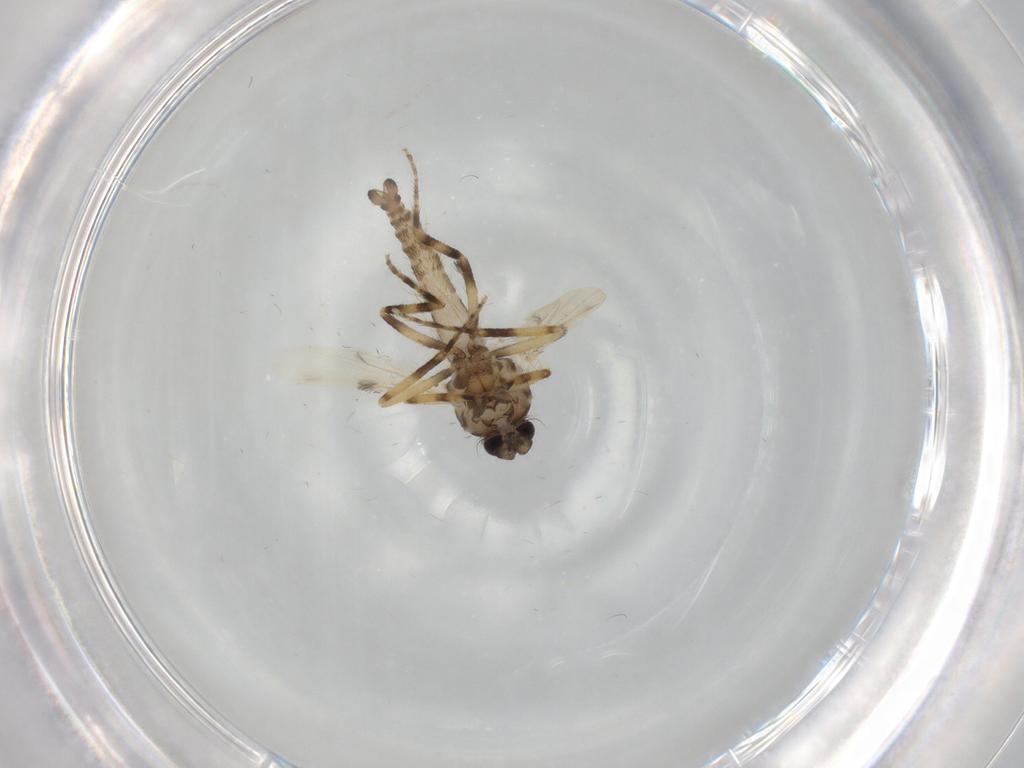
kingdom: Animalia
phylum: Arthropoda
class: Insecta
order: Diptera
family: Ceratopogonidae
